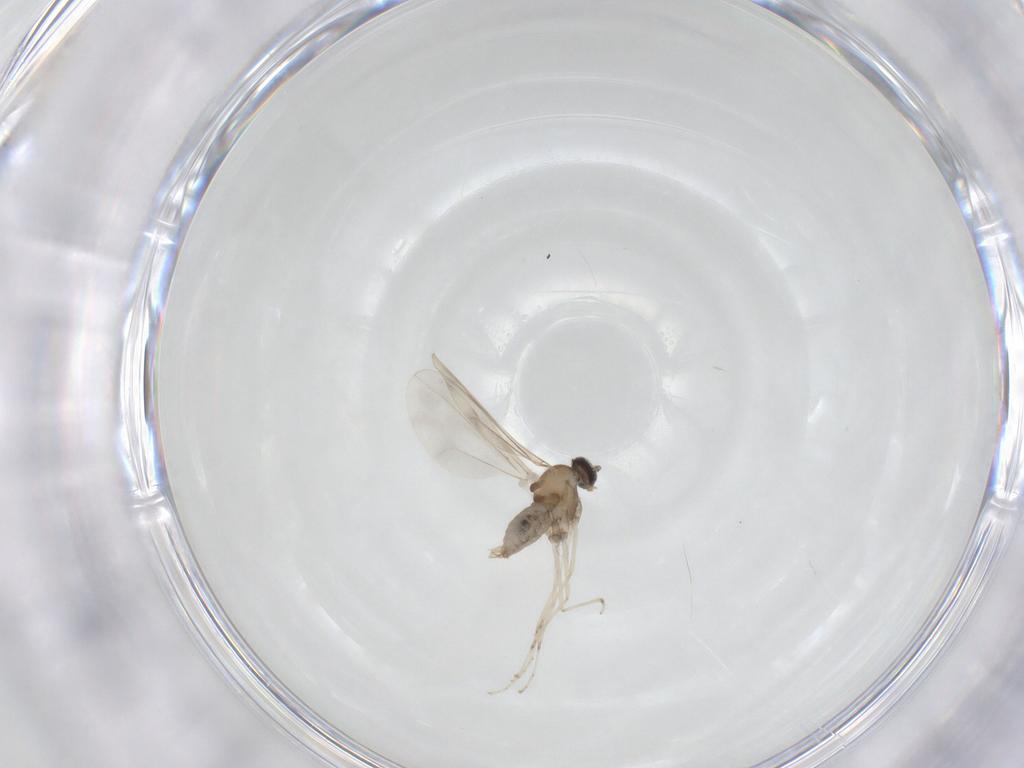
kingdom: Animalia
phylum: Arthropoda
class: Insecta
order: Diptera
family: Cecidomyiidae
